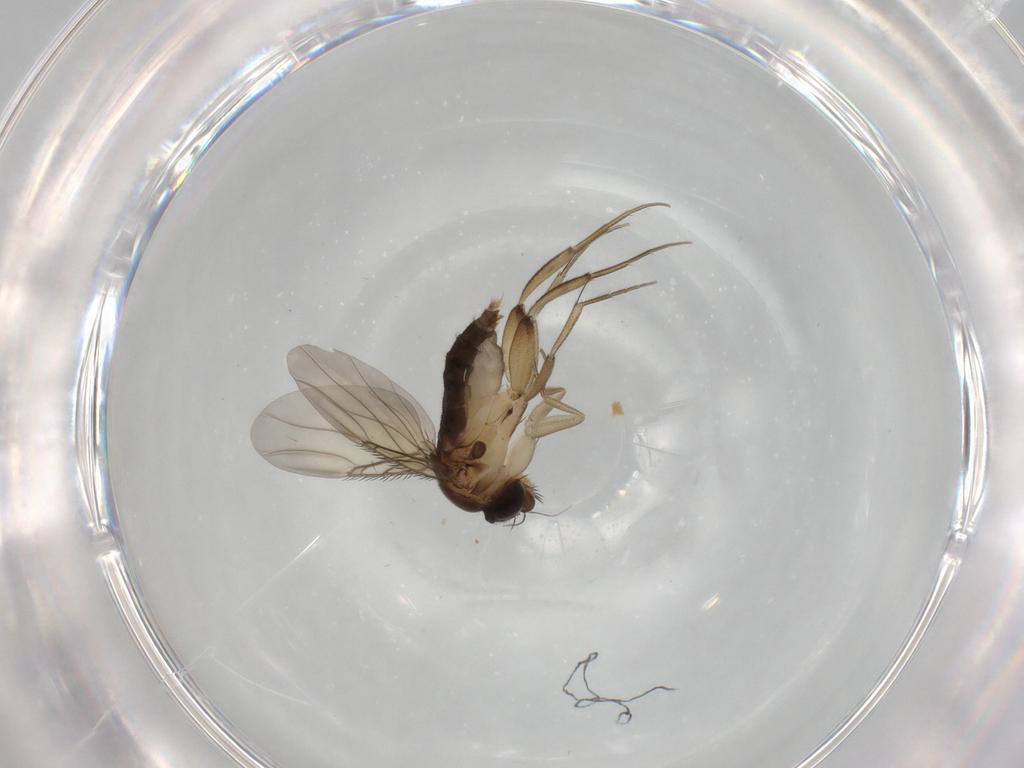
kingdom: Animalia
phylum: Arthropoda
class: Insecta
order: Diptera
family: Phoridae
